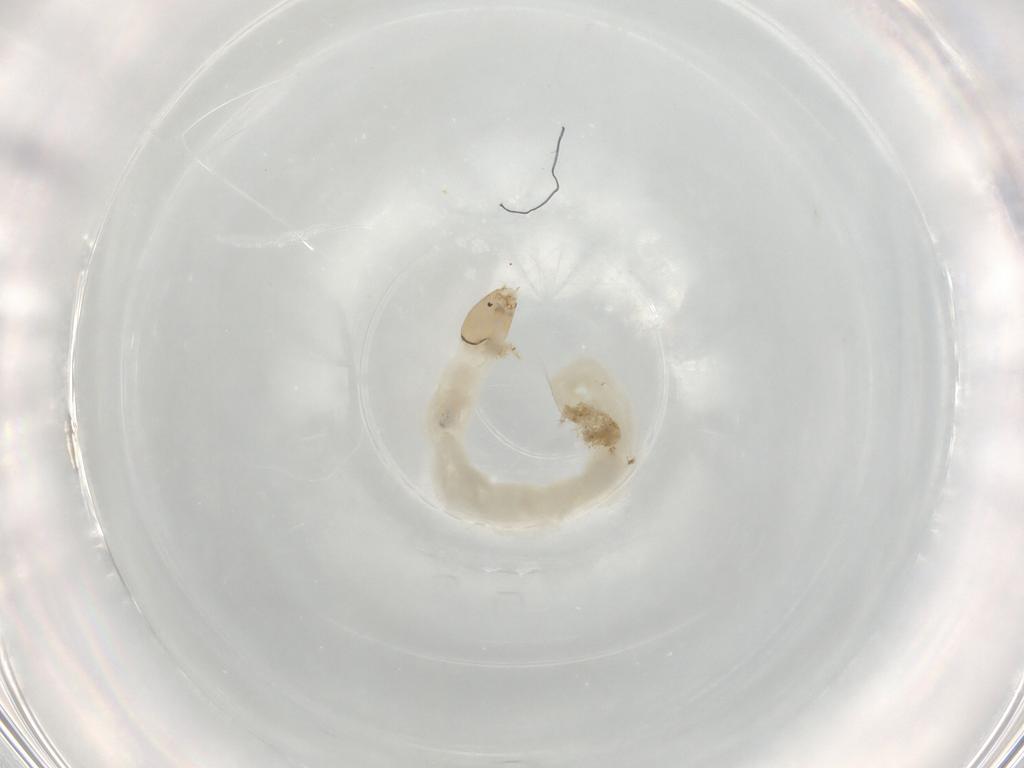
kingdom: Animalia
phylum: Arthropoda
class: Insecta
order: Diptera
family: Chironomidae
